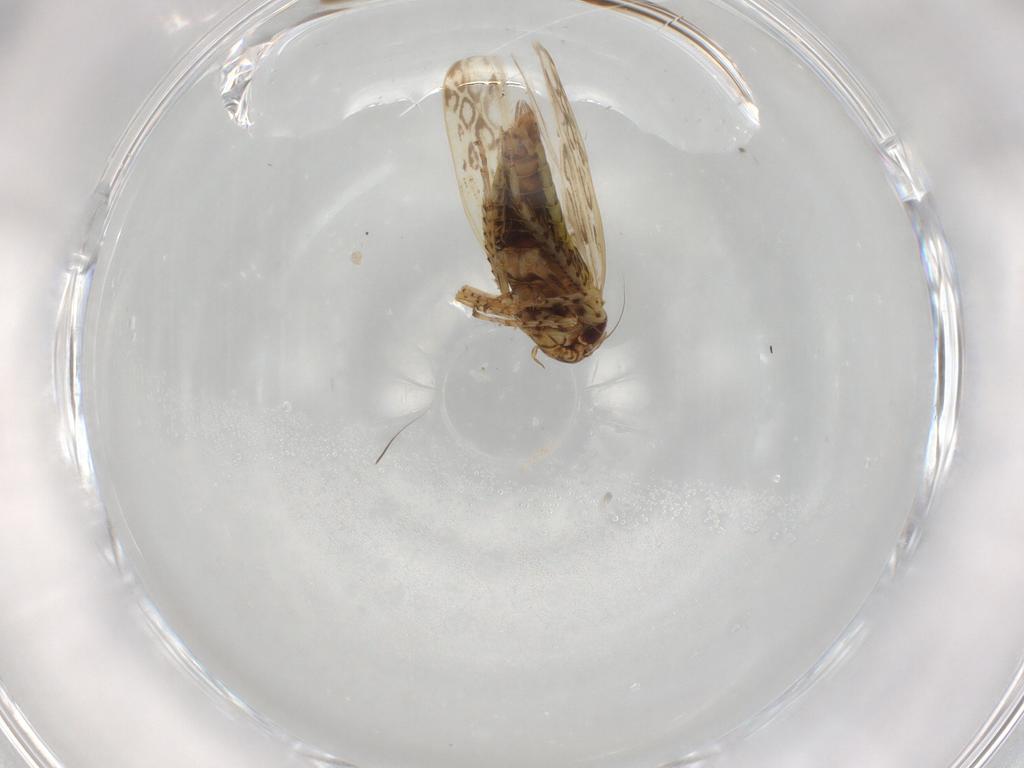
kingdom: Animalia
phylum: Arthropoda
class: Insecta
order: Hemiptera
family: Cicadellidae
